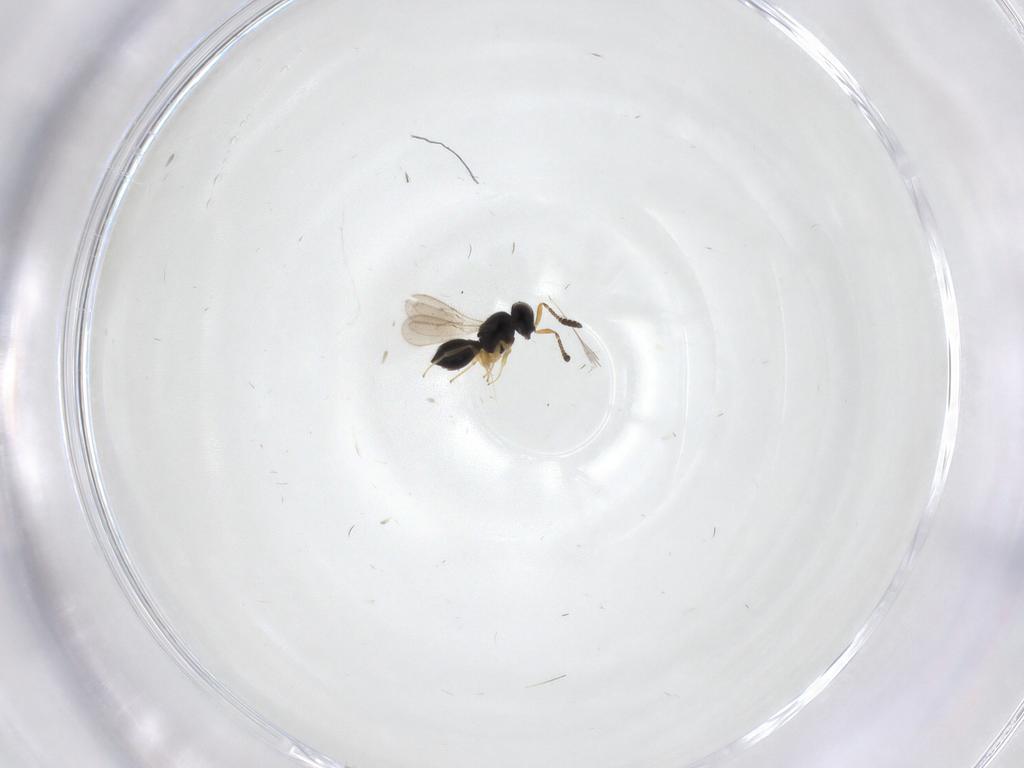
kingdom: Animalia
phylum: Arthropoda
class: Insecta
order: Hymenoptera
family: Scelionidae
